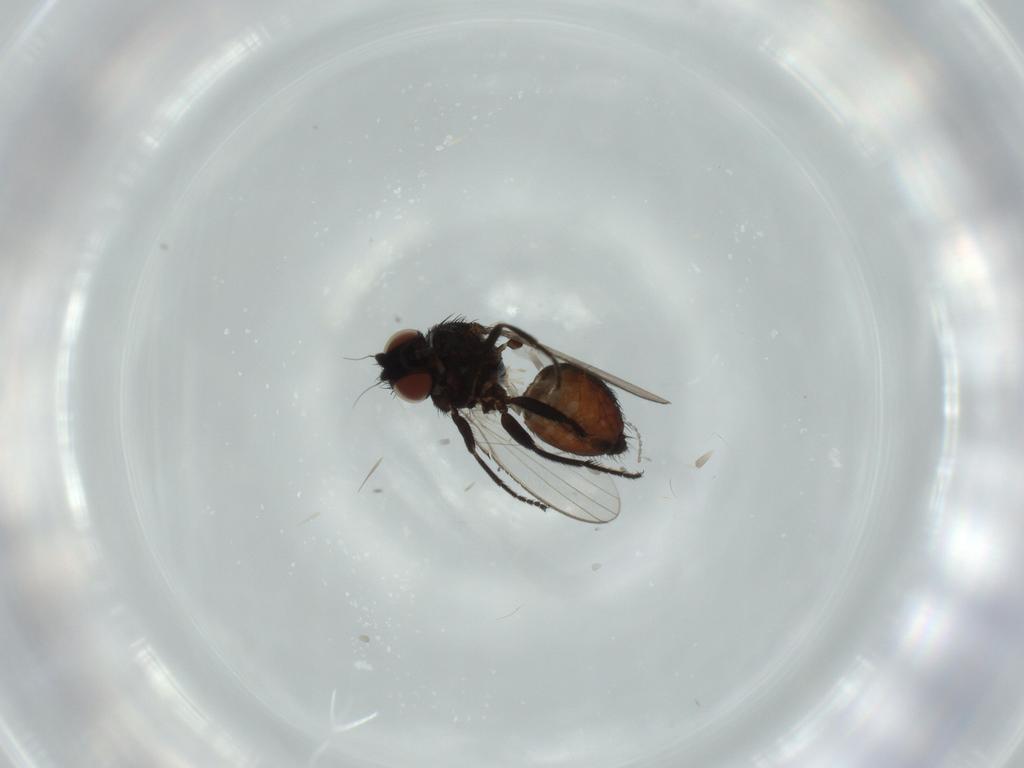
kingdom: Animalia
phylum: Arthropoda
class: Insecta
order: Diptera
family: Milichiidae
